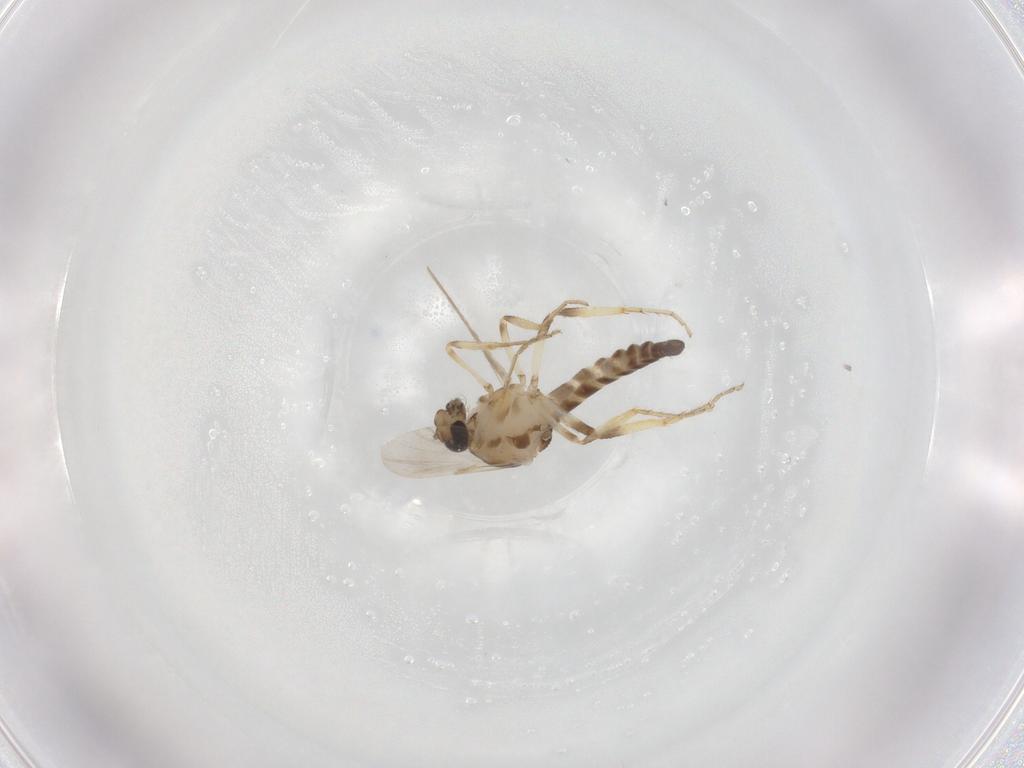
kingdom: Animalia
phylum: Arthropoda
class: Insecta
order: Diptera
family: Ceratopogonidae
